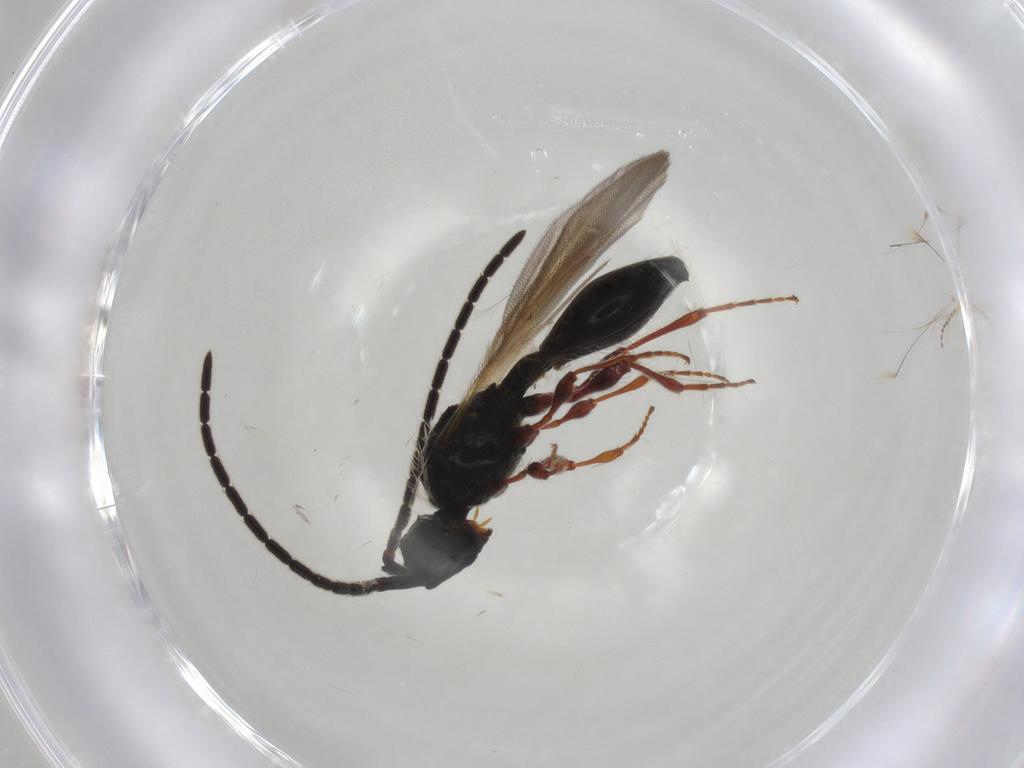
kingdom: Animalia
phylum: Arthropoda
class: Insecta
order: Hymenoptera
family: Diapriidae
